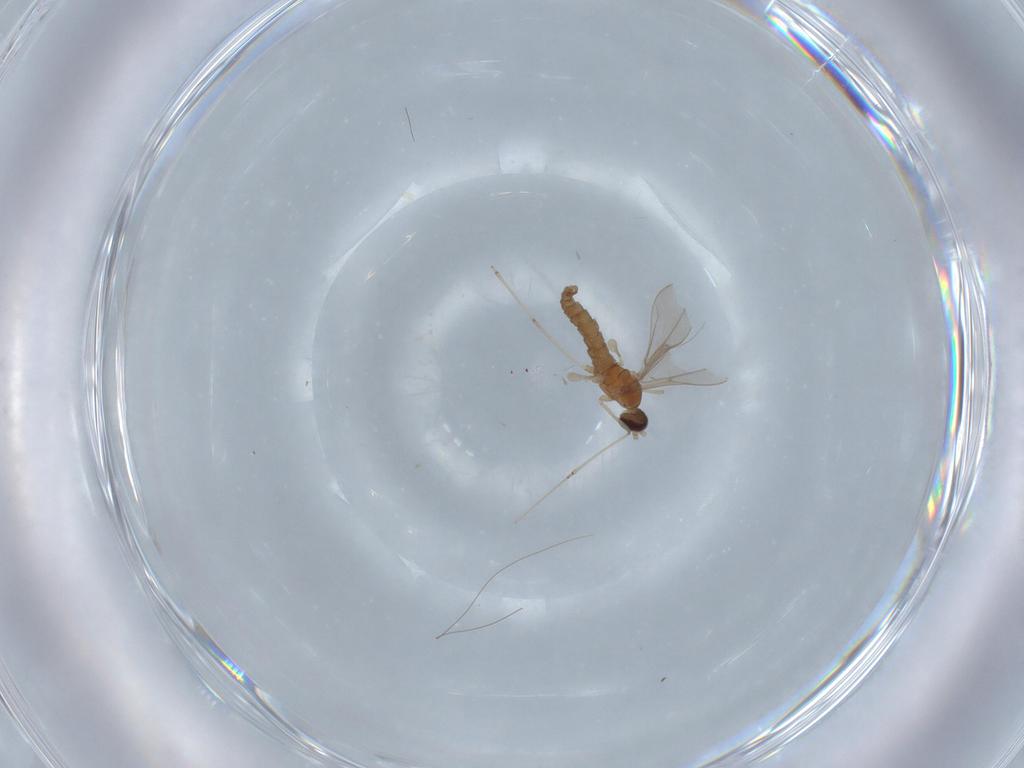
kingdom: Animalia
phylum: Arthropoda
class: Insecta
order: Diptera
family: Cecidomyiidae
